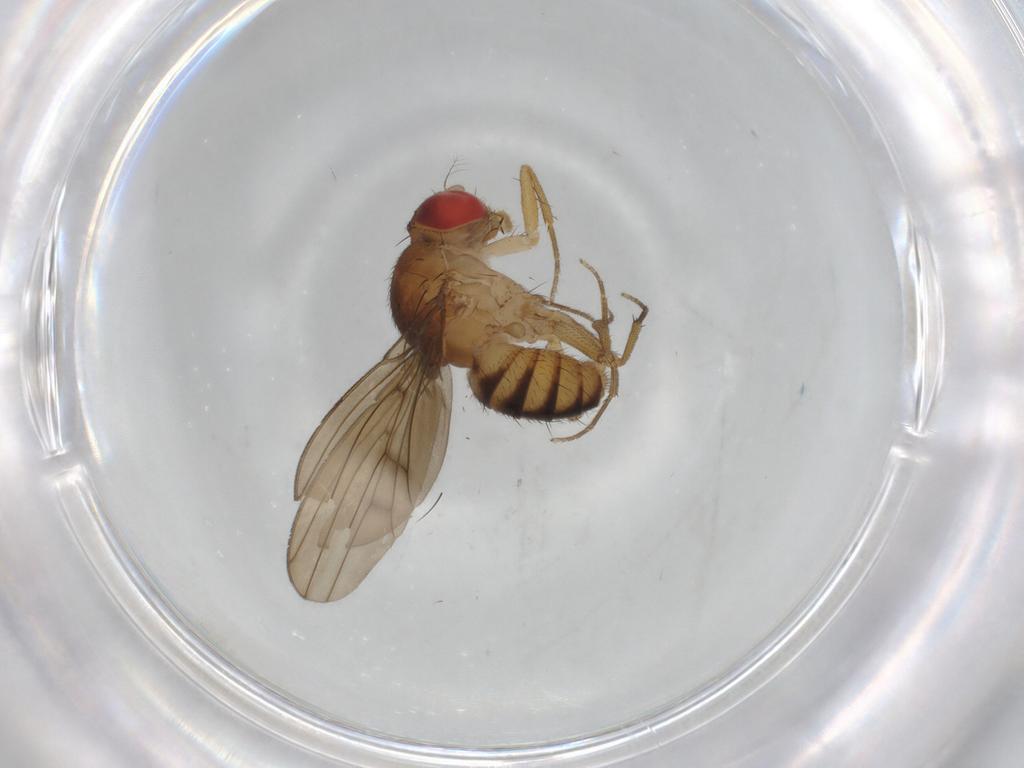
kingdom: Animalia
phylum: Arthropoda
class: Insecta
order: Diptera
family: Drosophilidae
